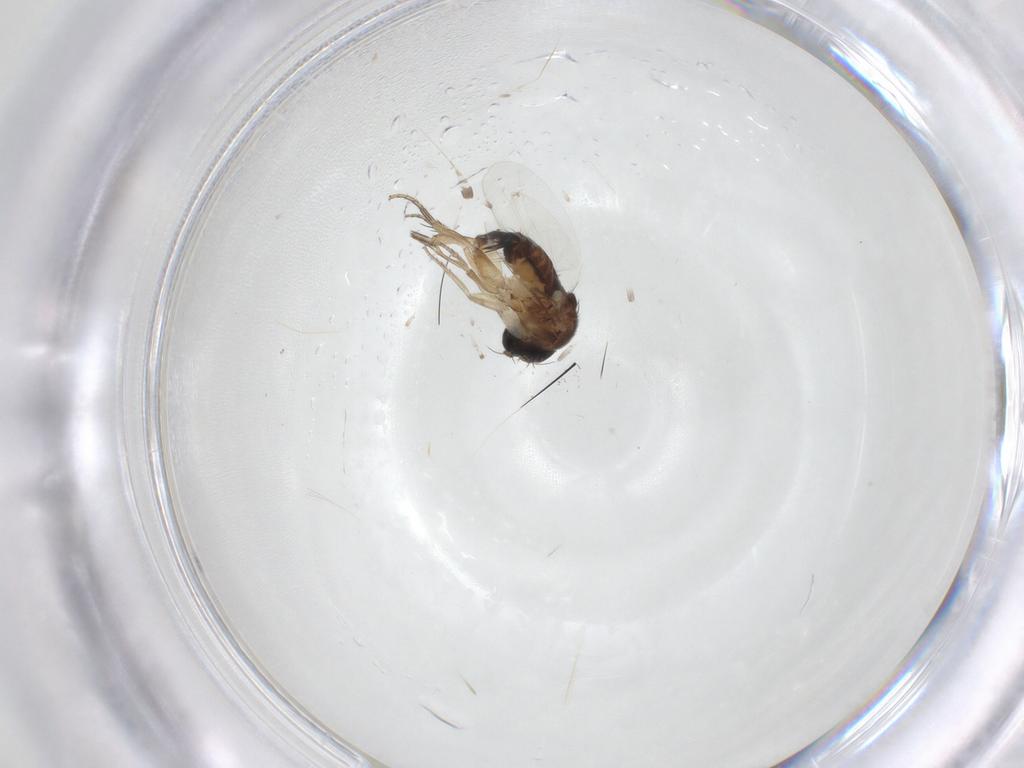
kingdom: Animalia
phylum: Arthropoda
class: Insecta
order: Diptera
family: Phoridae
